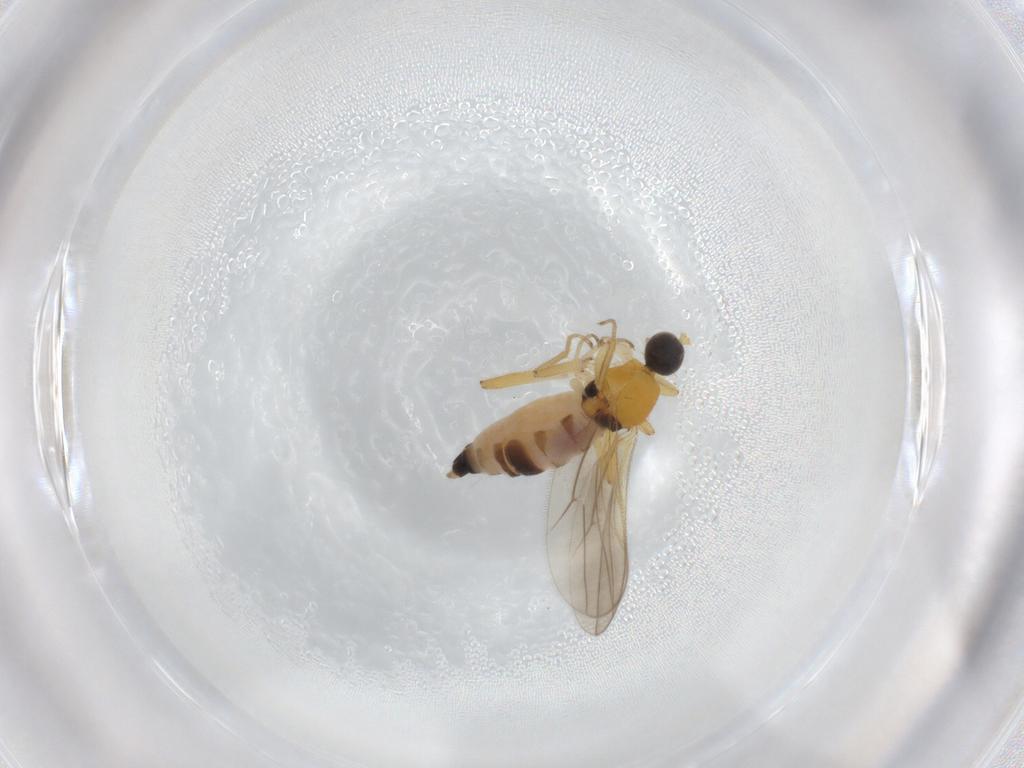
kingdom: Animalia
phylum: Arthropoda
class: Insecta
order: Diptera
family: Hybotidae
